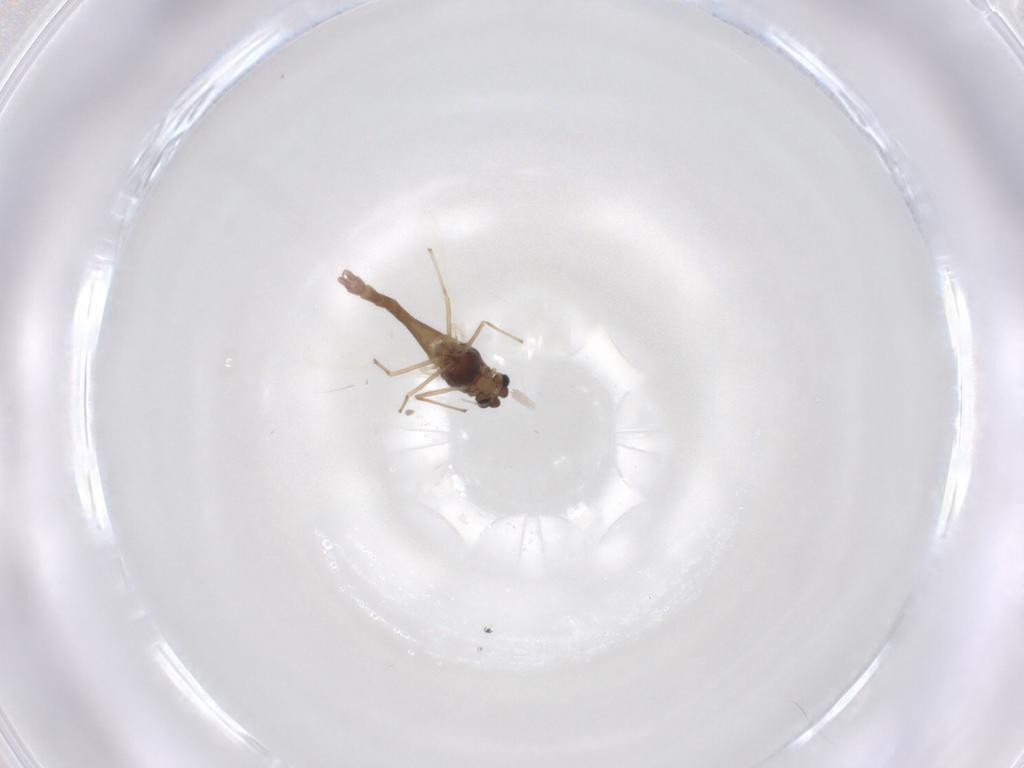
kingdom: Animalia
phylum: Arthropoda
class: Insecta
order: Diptera
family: Chironomidae
